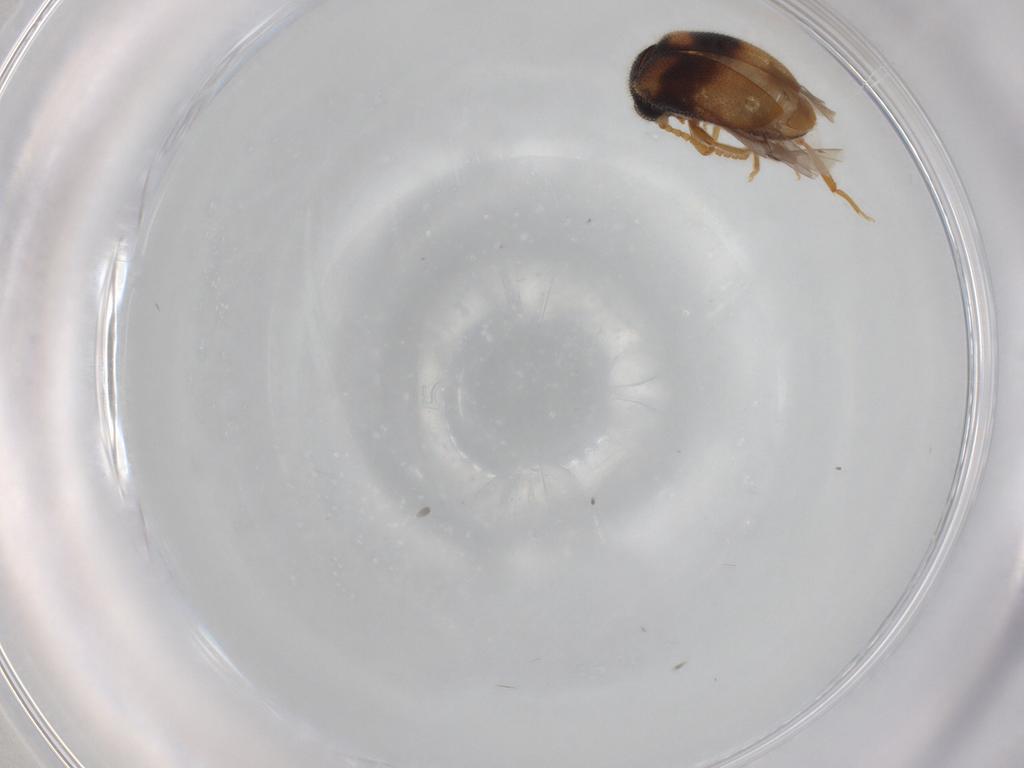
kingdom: Animalia
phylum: Arthropoda
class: Insecta
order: Coleoptera
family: Aderidae
